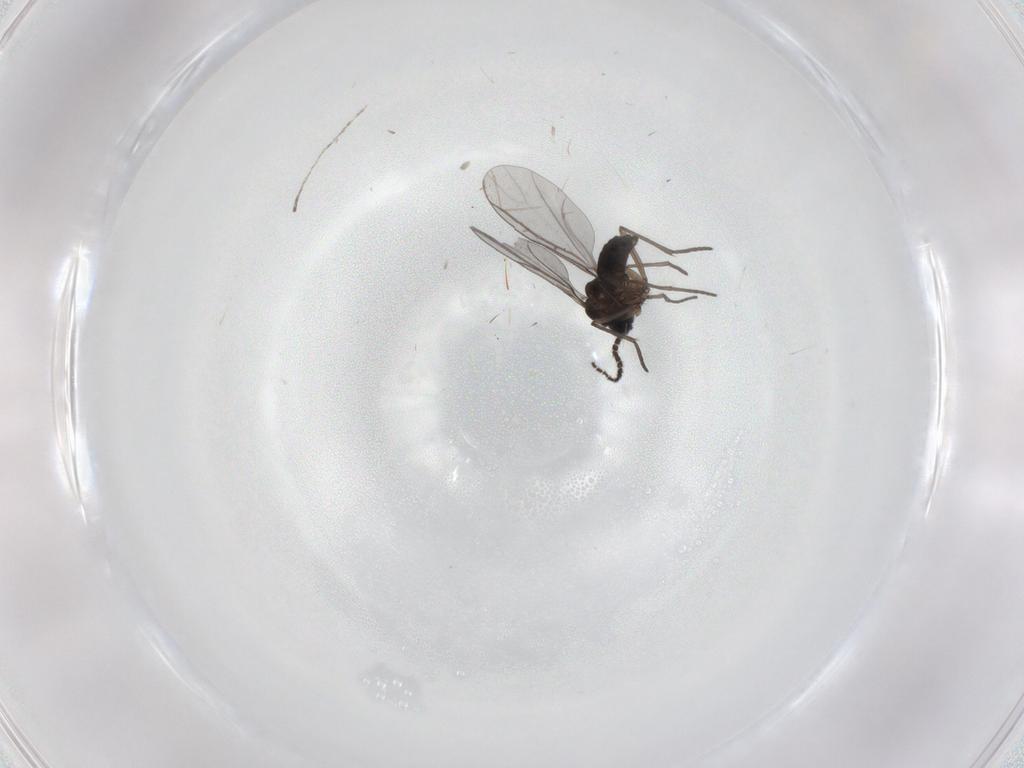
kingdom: Animalia
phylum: Arthropoda
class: Insecta
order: Diptera
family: Sarcophagidae
